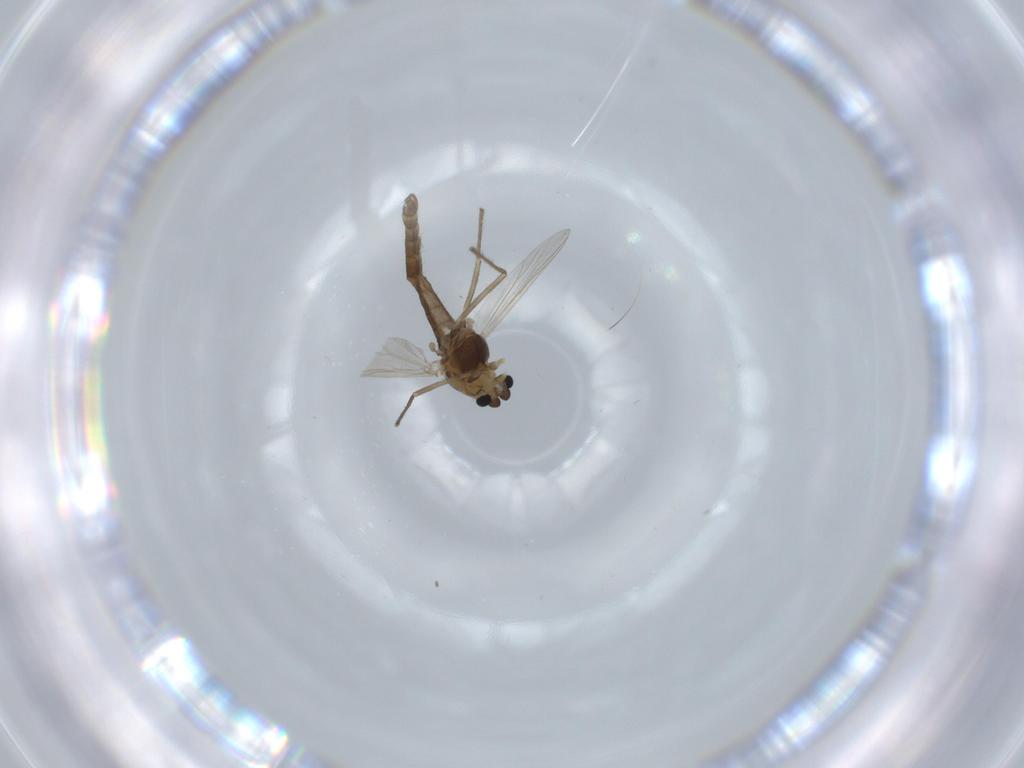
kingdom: Animalia
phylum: Arthropoda
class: Insecta
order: Diptera
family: Chironomidae
